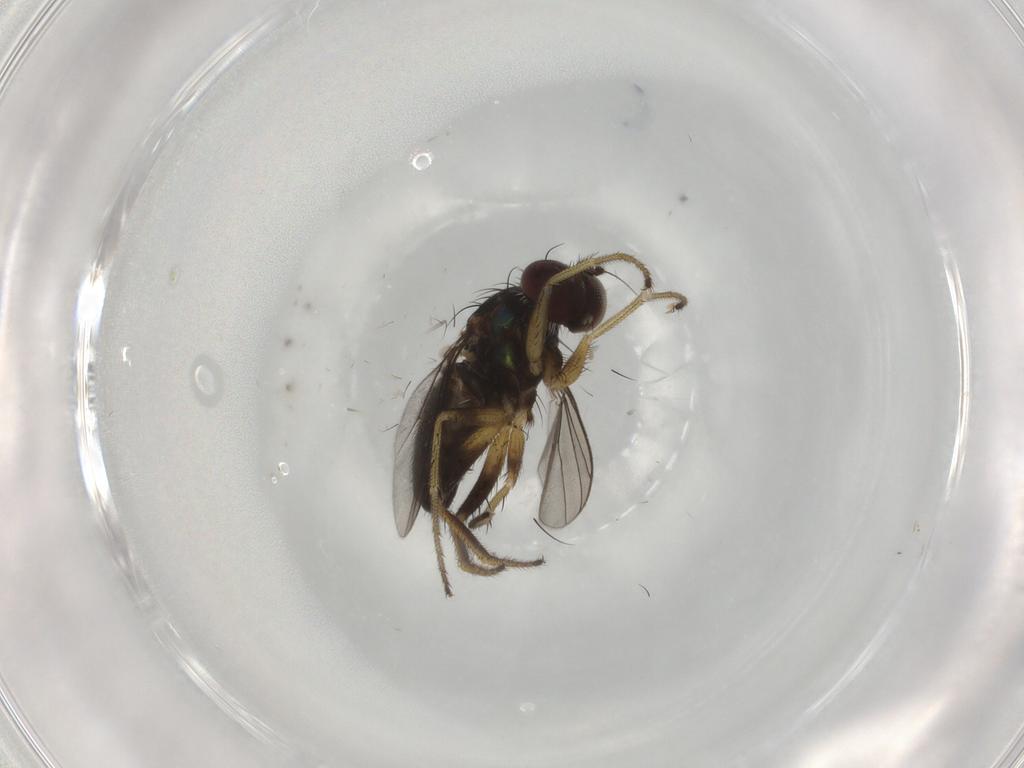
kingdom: Animalia
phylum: Arthropoda
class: Insecta
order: Diptera
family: Dolichopodidae
